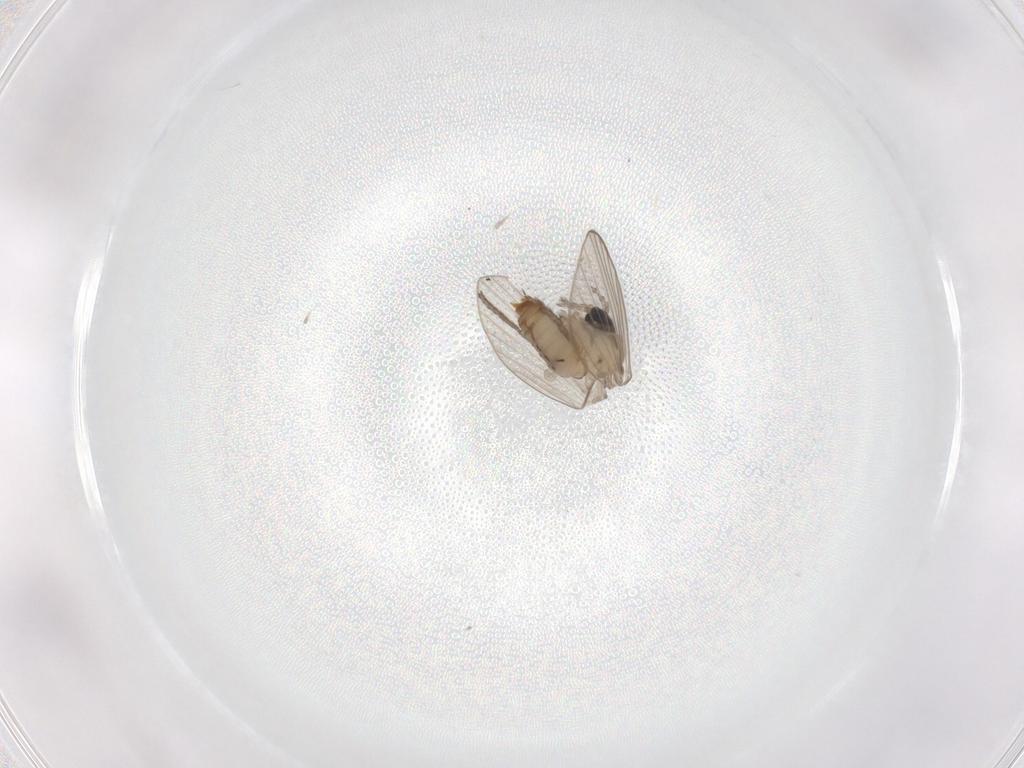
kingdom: Animalia
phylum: Arthropoda
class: Insecta
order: Diptera
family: Psychodidae
